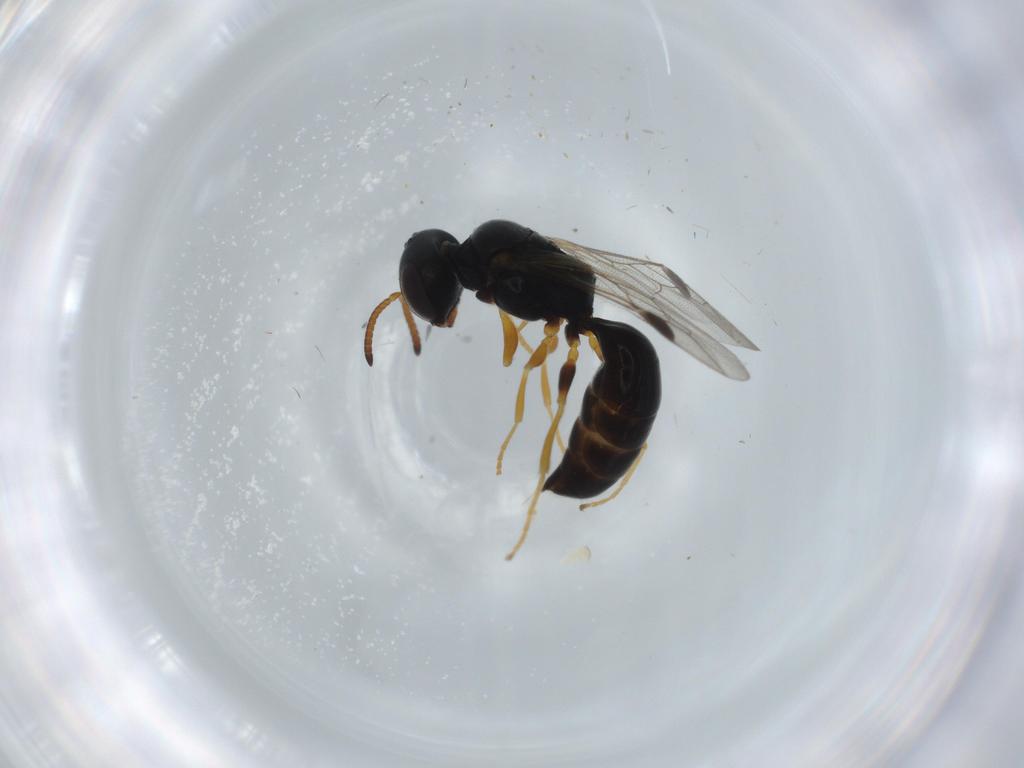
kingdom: Animalia
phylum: Arthropoda
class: Insecta
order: Hymenoptera
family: Pemphredonidae
